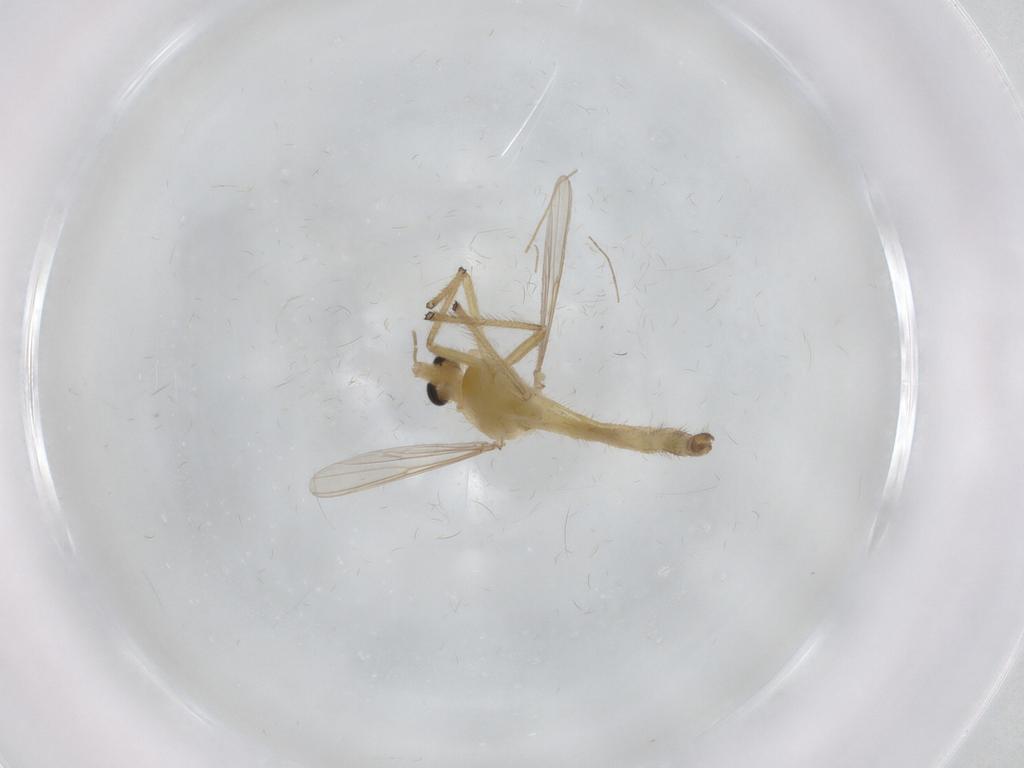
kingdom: Animalia
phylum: Arthropoda
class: Insecta
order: Diptera
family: Chironomidae
